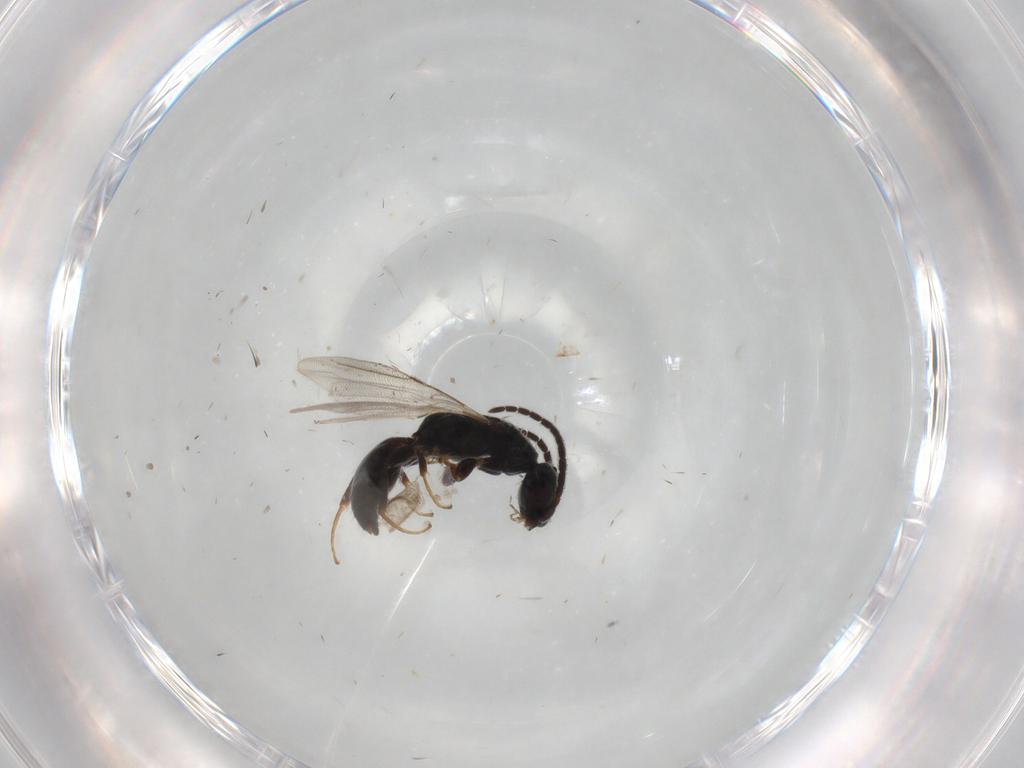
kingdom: Animalia
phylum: Arthropoda
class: Insecta
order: Hymenoptera
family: Bethylidae
